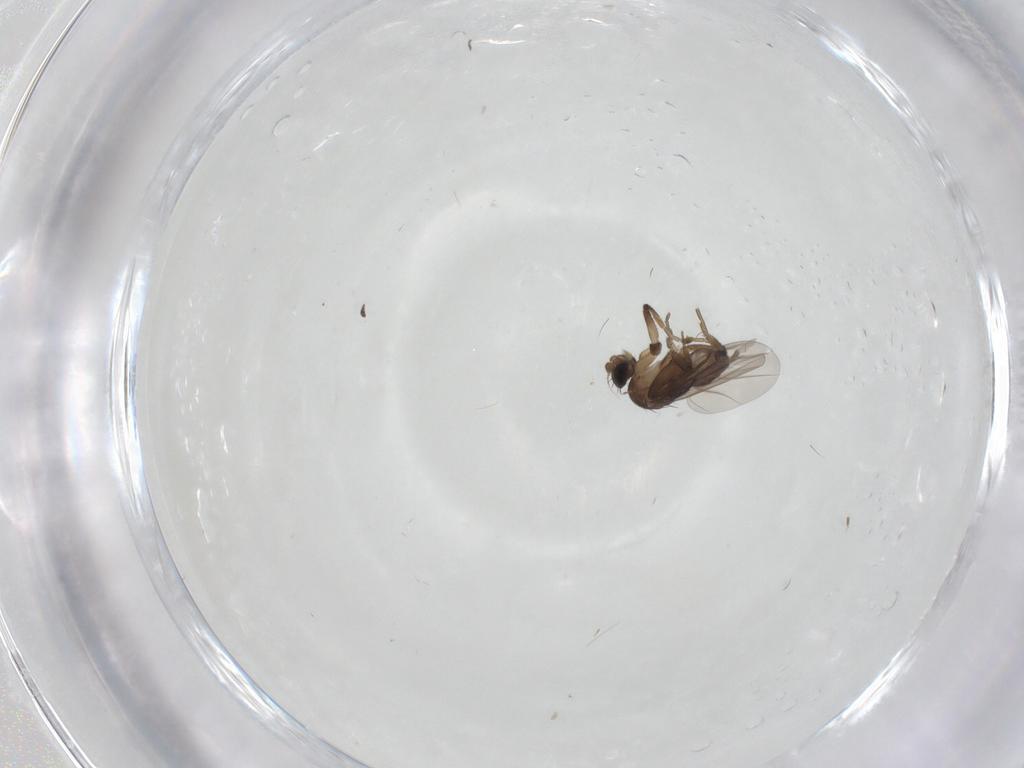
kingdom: Animalia
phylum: Arthropoda
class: Insecta
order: Diptera
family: Phoridae
